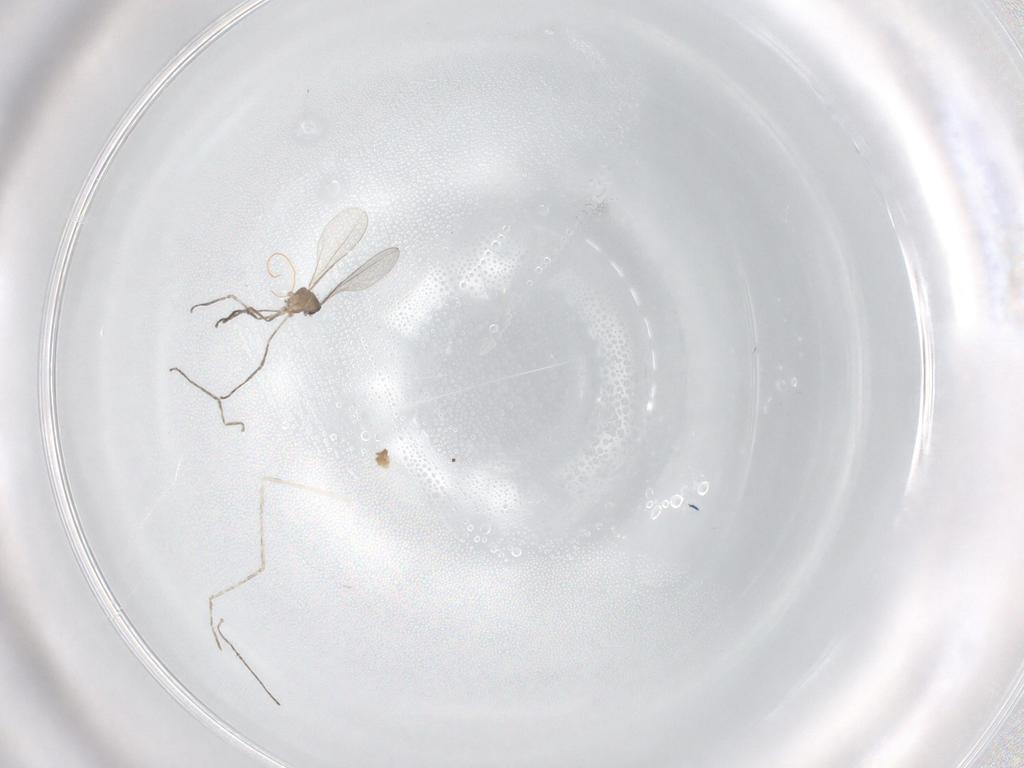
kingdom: Animalia
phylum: Arthropoda
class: Insecta
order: Diptera
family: Cecidomyiidae
